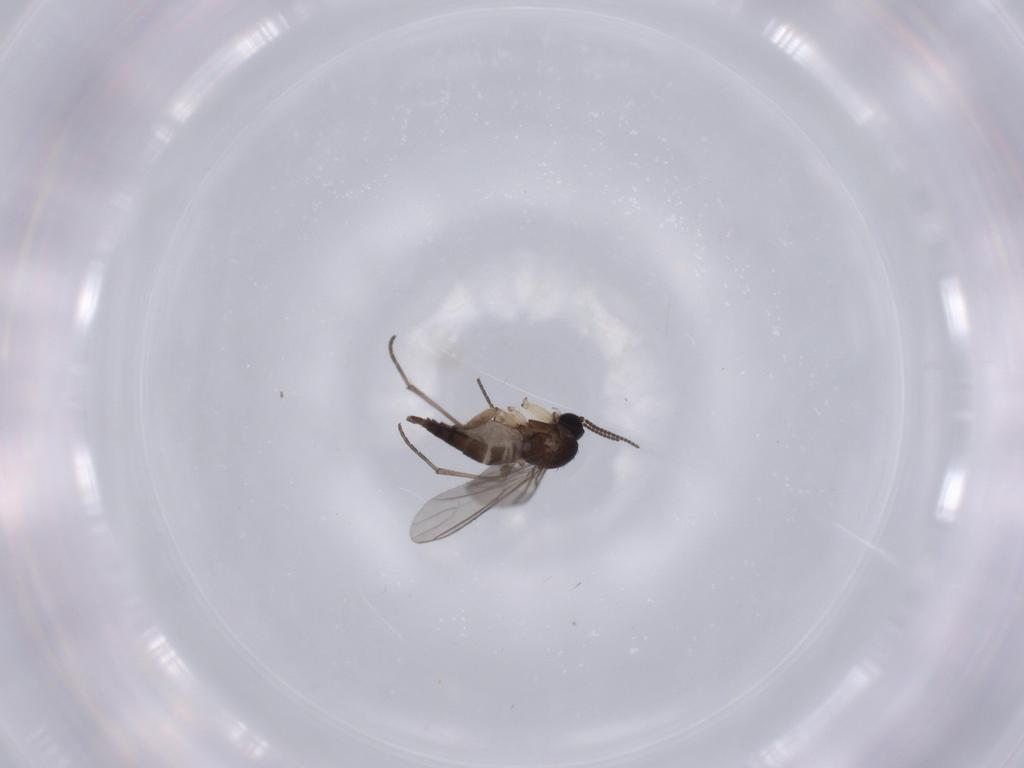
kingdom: Animalia
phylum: Arthropoda
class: Insecta
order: Diptera
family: Sciaridae
